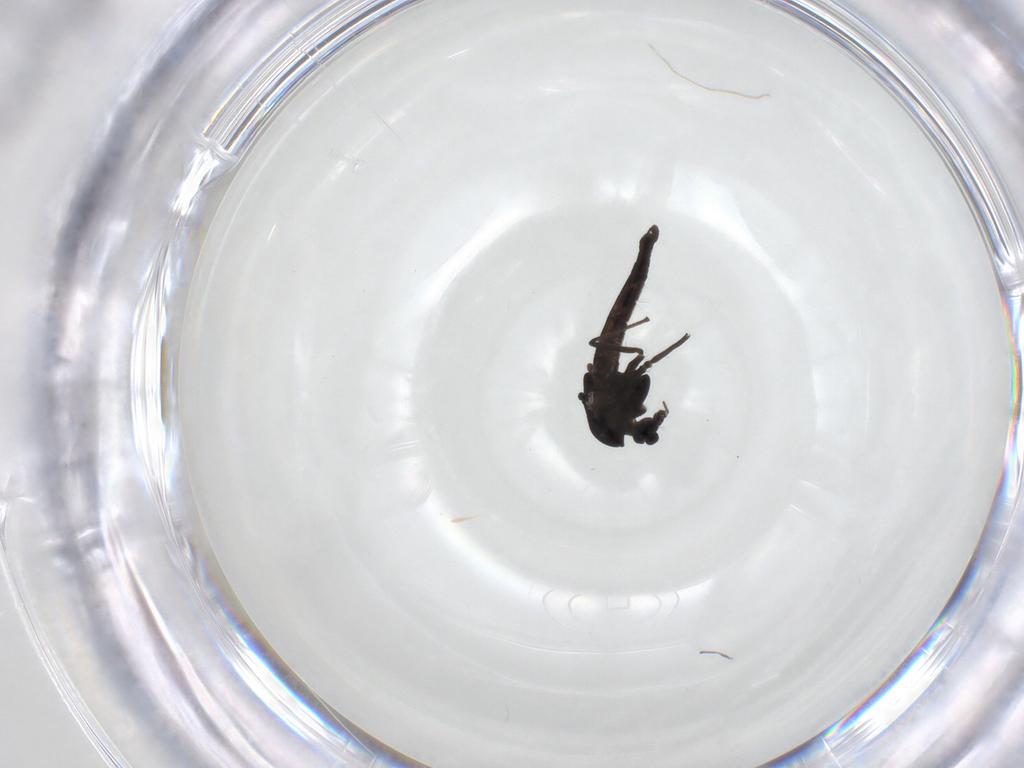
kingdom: Animalia
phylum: Arthropoda
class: Insecta
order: Diptera
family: Chironomidae
